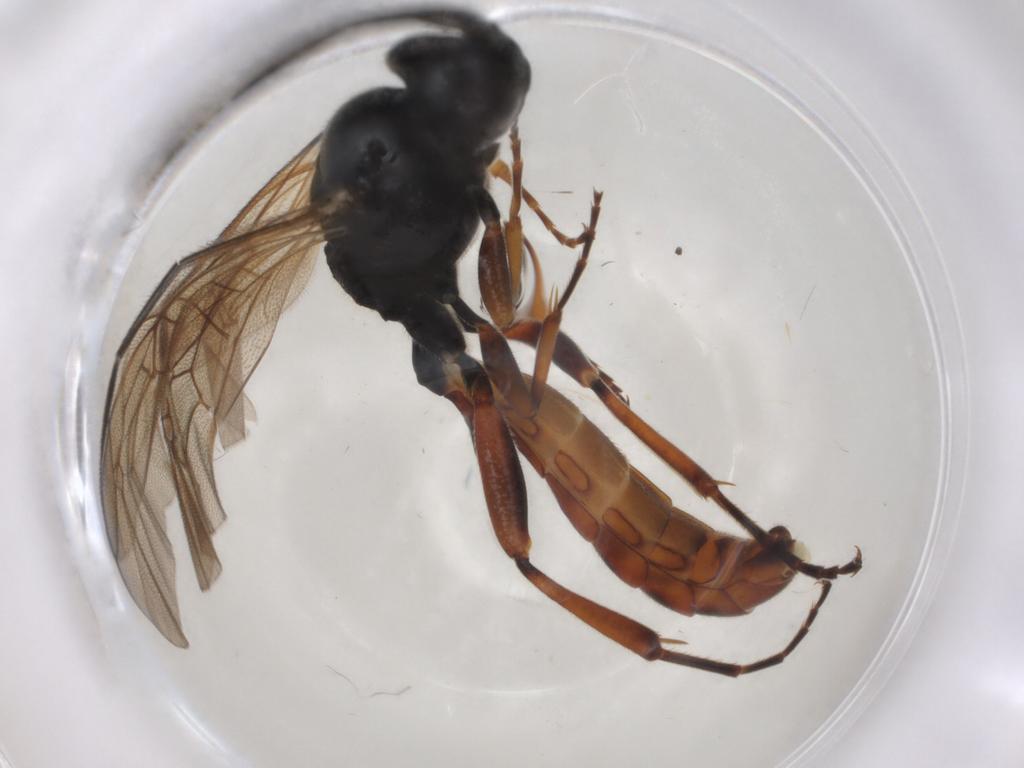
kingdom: Animalia
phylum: Arthropoda
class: Insecta
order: Hymenoptera
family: Ichneumonidae
